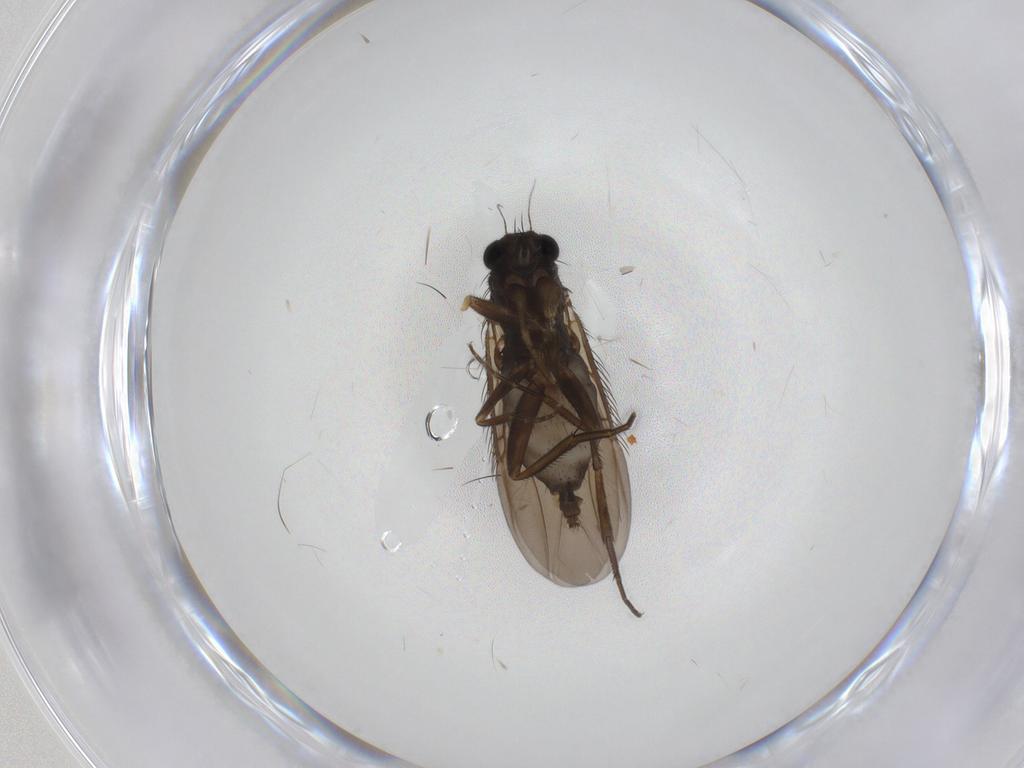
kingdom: Animalia
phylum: Arthropoda
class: Insecta
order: Diptera
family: Phoridae
